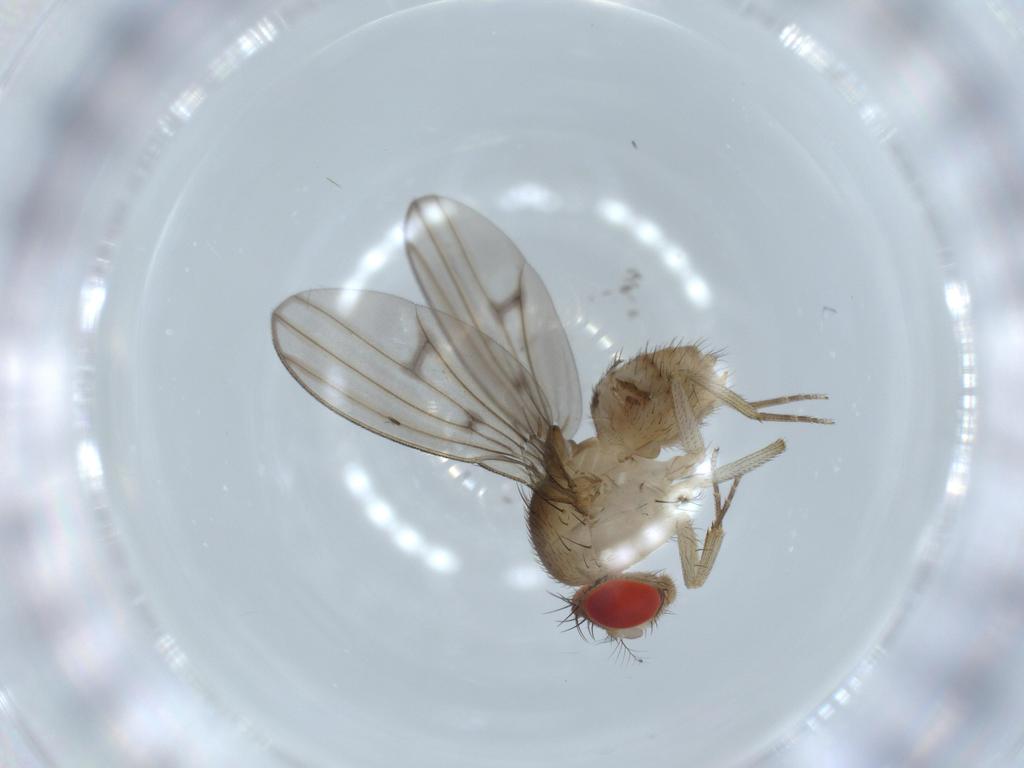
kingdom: Animalia
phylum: Arthropoda
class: Insecta
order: Diptera
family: Drosophilidae
